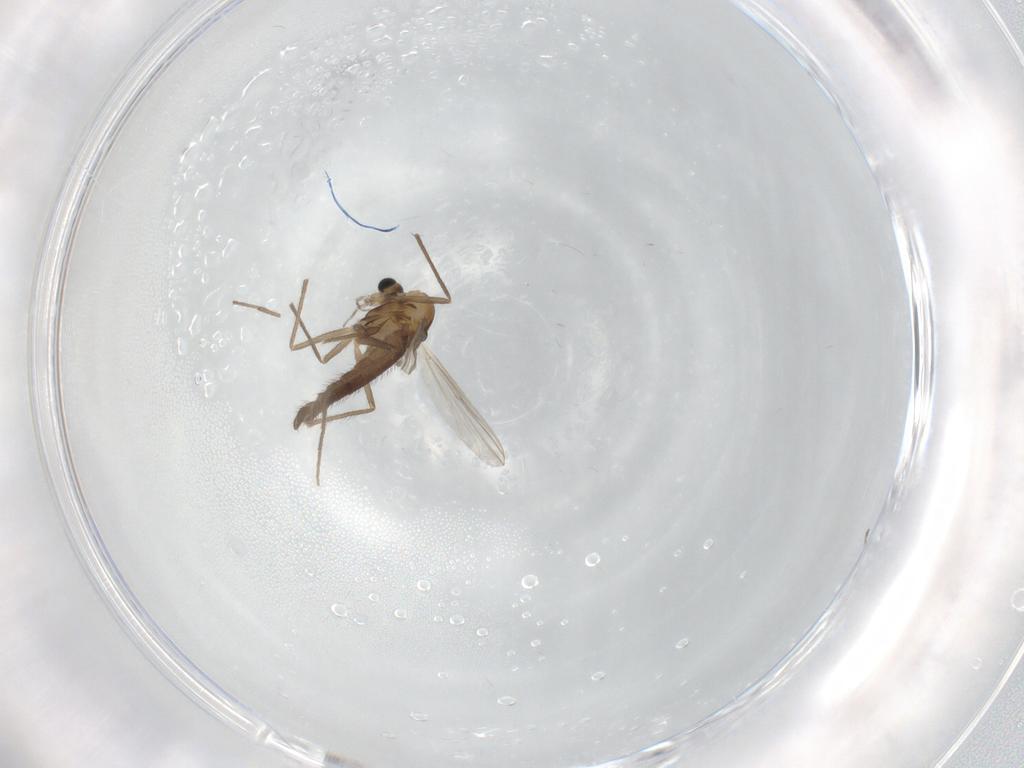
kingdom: Animalia
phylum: Arthropoda
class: Insecta
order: Diptera
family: Chironomidae
